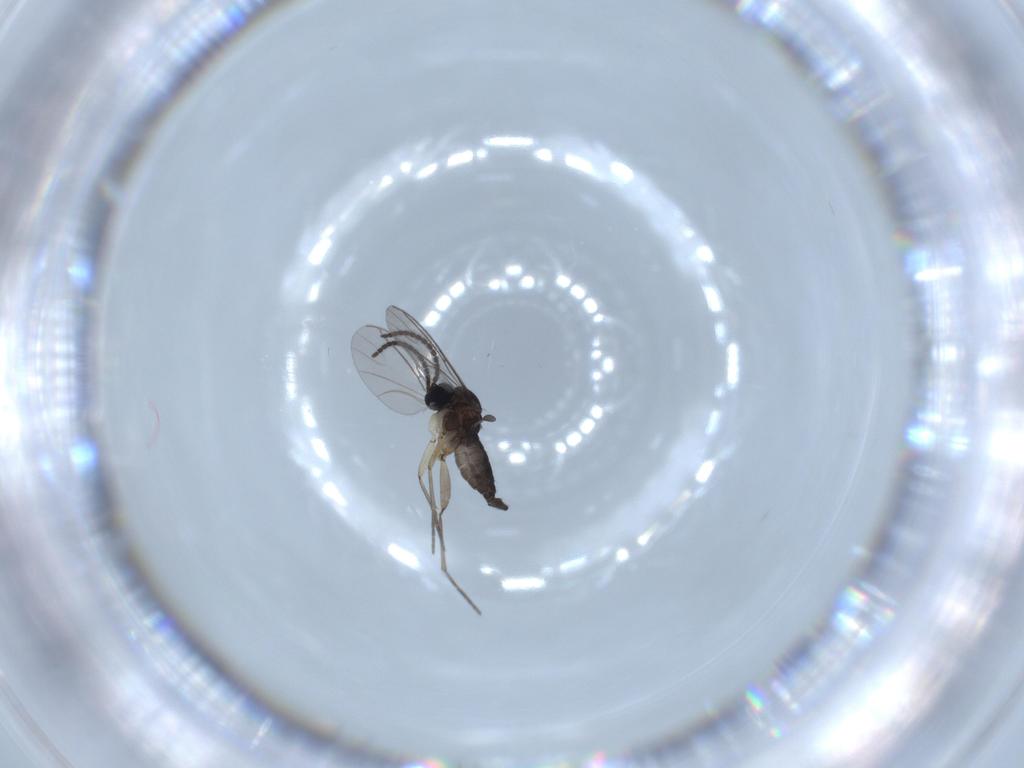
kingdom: Animalia
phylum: Arthropoda
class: Insecta
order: Diptera
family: Sciaridae
